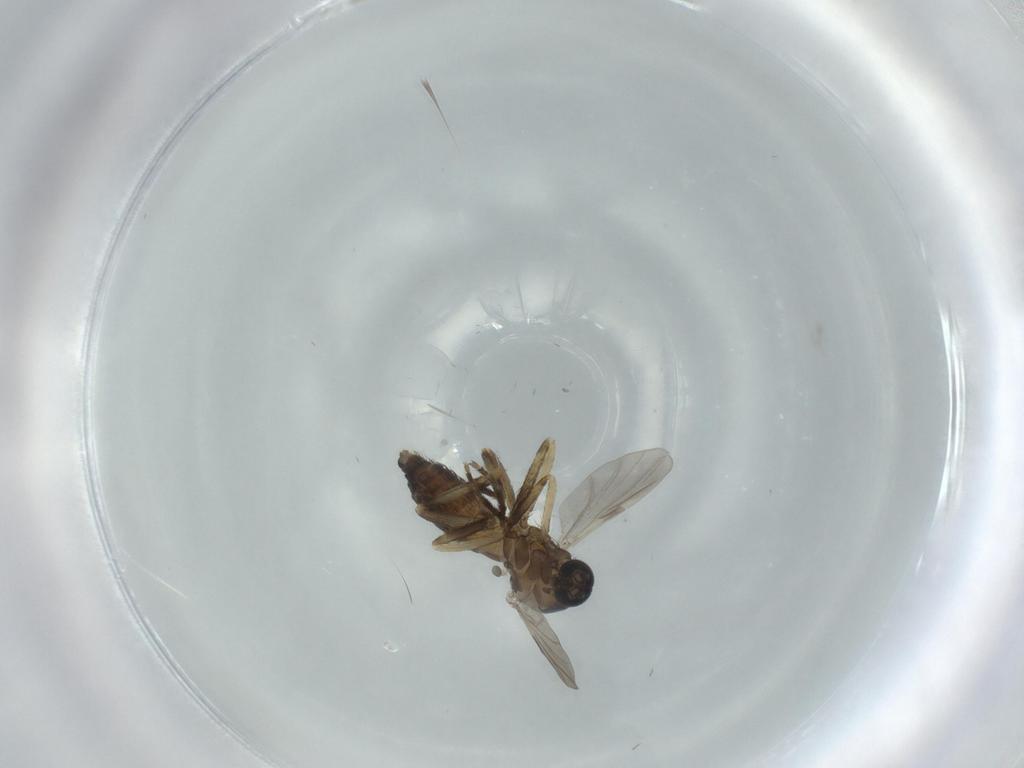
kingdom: Animalia
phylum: Arthropoda
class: Insecta
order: Diptera
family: Ceratopogonidae
